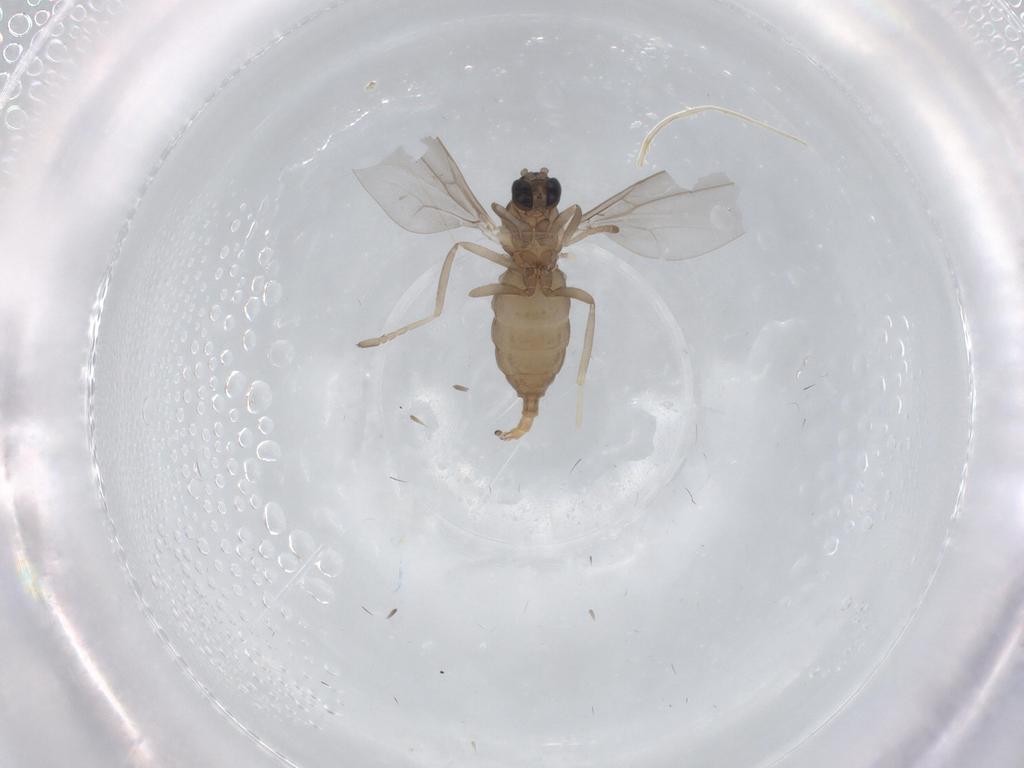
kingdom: Animalia
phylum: Arthropoda
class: Insecta
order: Diptera
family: Cecidomyiidae
